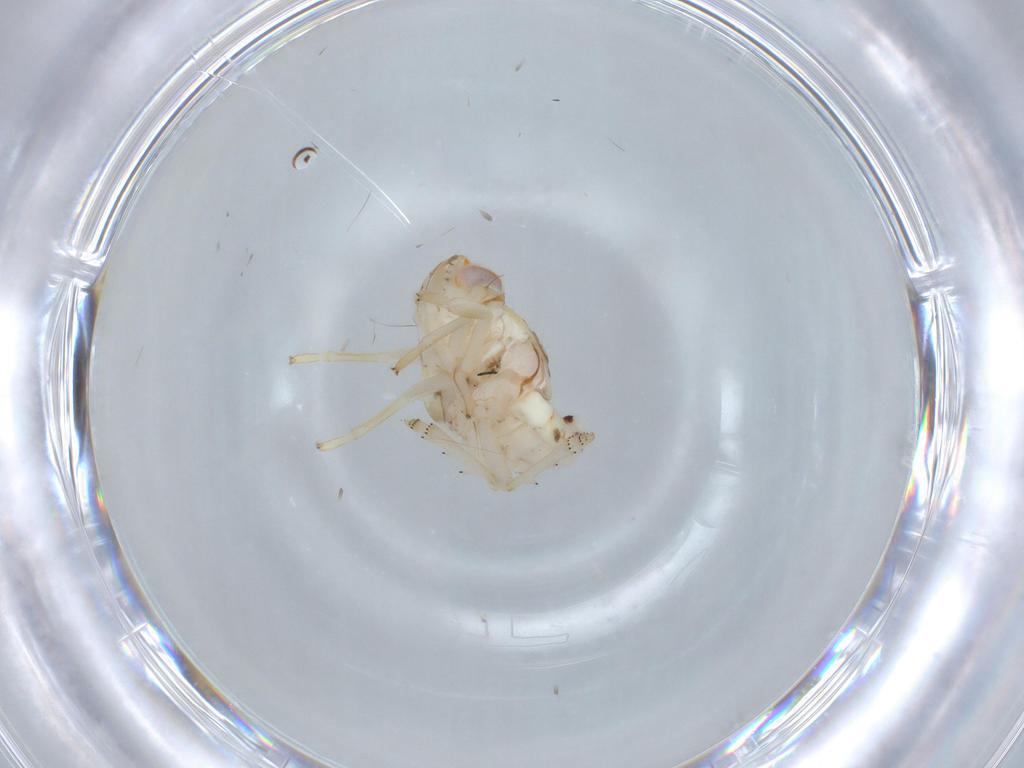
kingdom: Animalia
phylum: Arthropoda
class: Insecta
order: Hemiptera
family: Nogodinidae
